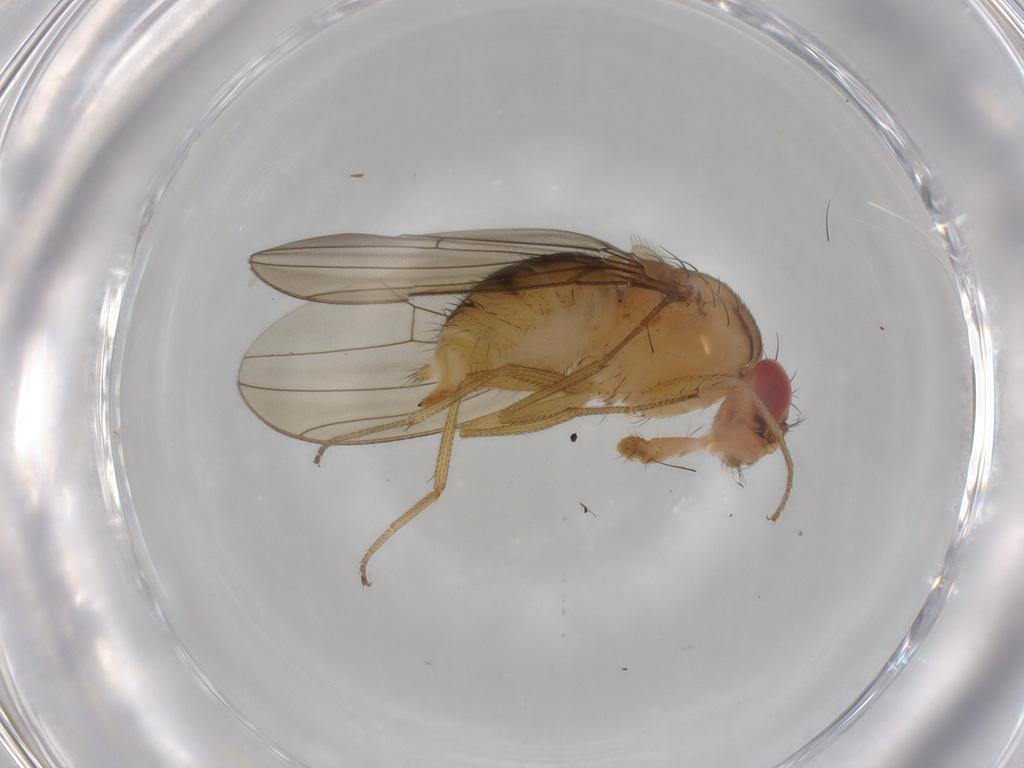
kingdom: Animalia
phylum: Arthropoda
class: Insecta
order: Diptera
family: Drosophilidae
